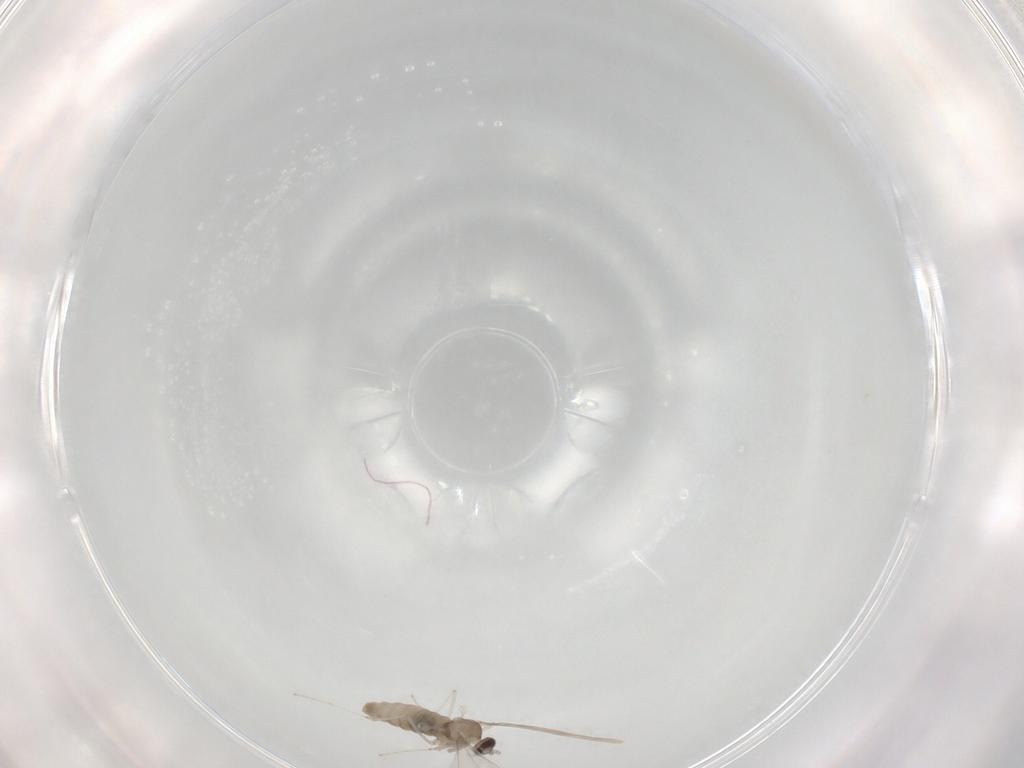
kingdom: Animalia
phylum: Arthropoda
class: Insecta
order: Diptera
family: Cecidomyiidae
